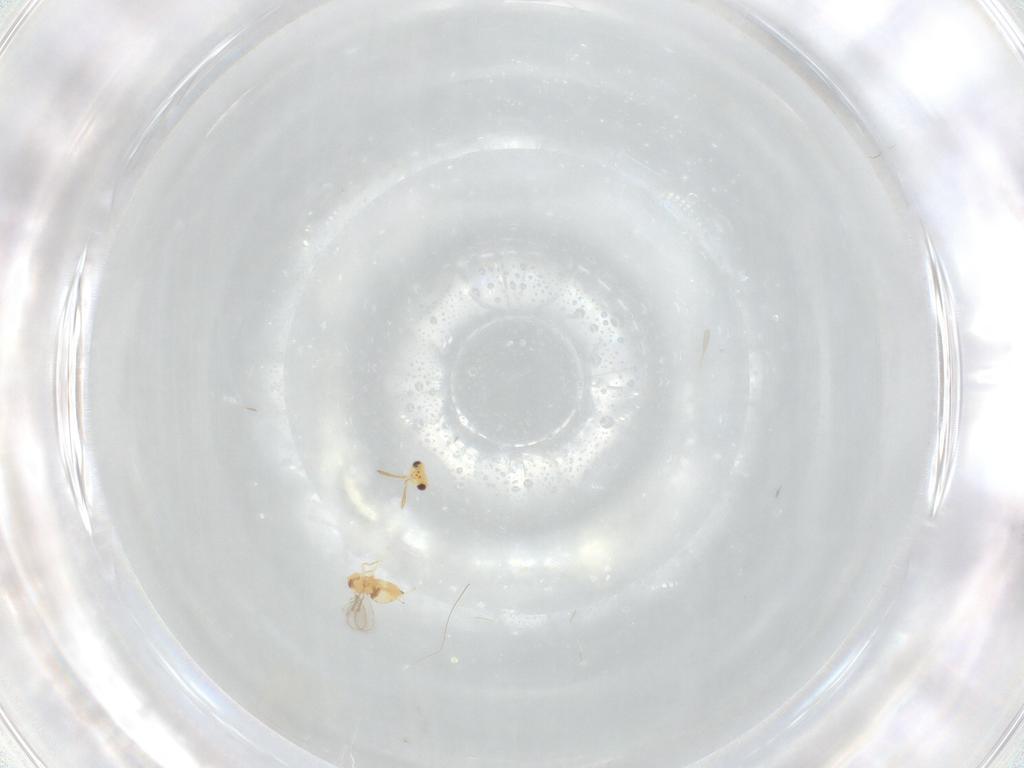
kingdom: Animalia
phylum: Arthropoda
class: Insecta
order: Hymenoptera
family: Aphelinidae
